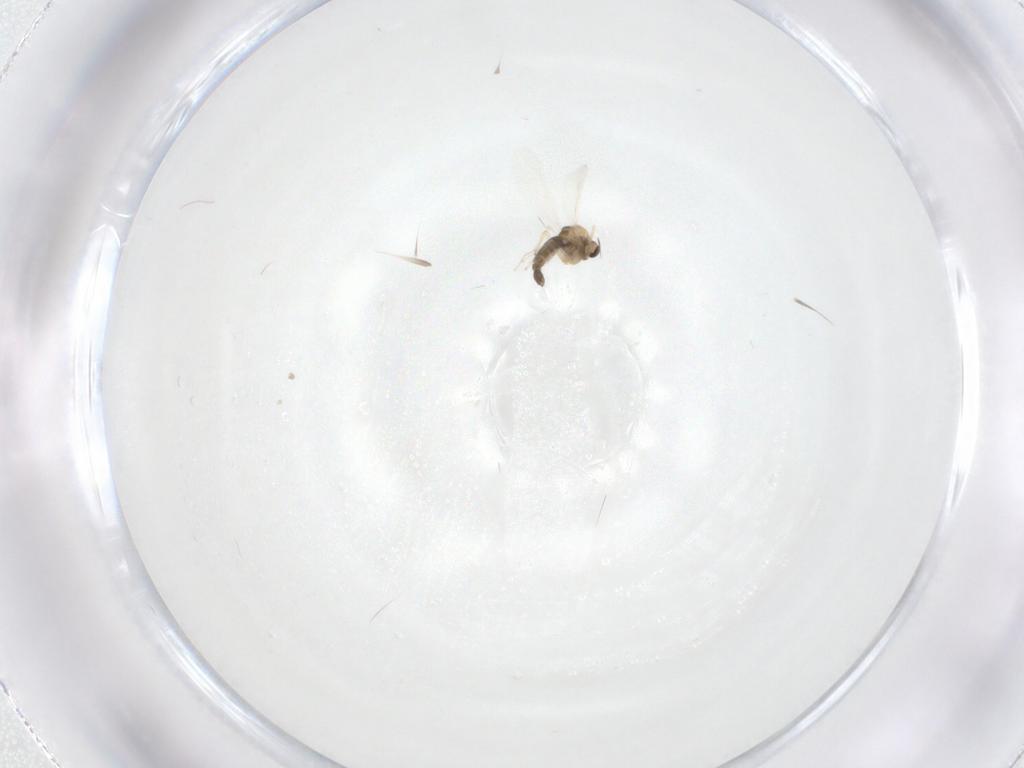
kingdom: Animalia
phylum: Arthropoda
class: Insecta
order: Diptera
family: Chironomidae
